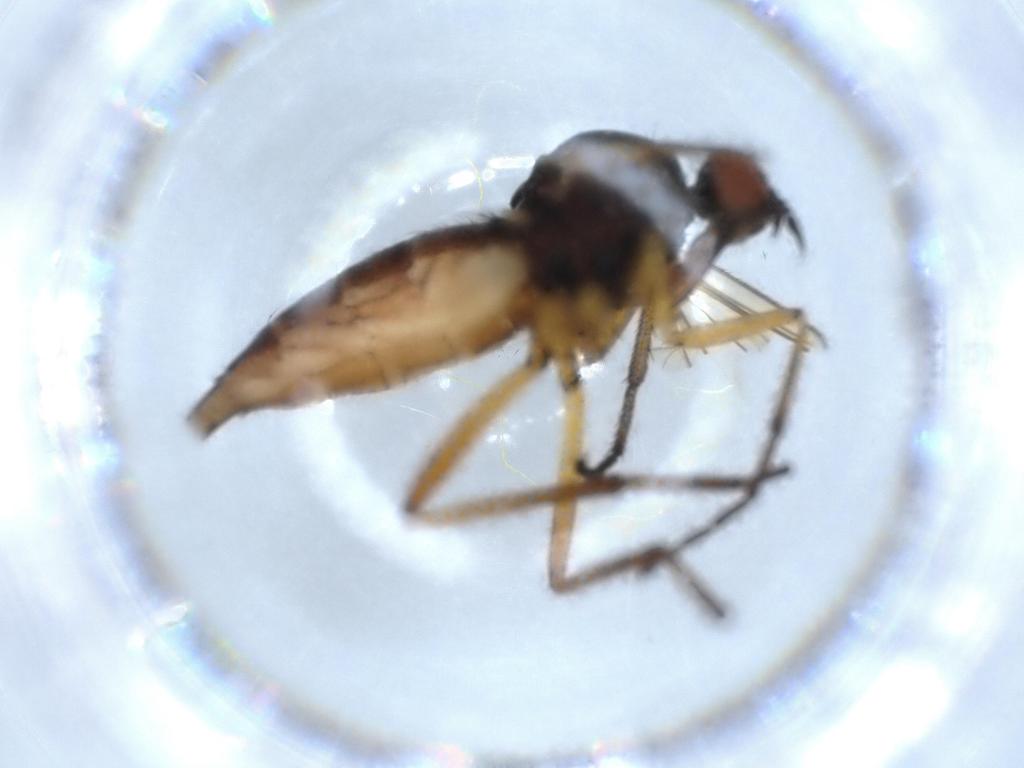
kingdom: Animalia
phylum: Arthropoda
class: Insecta
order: Diptera
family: Empididae
